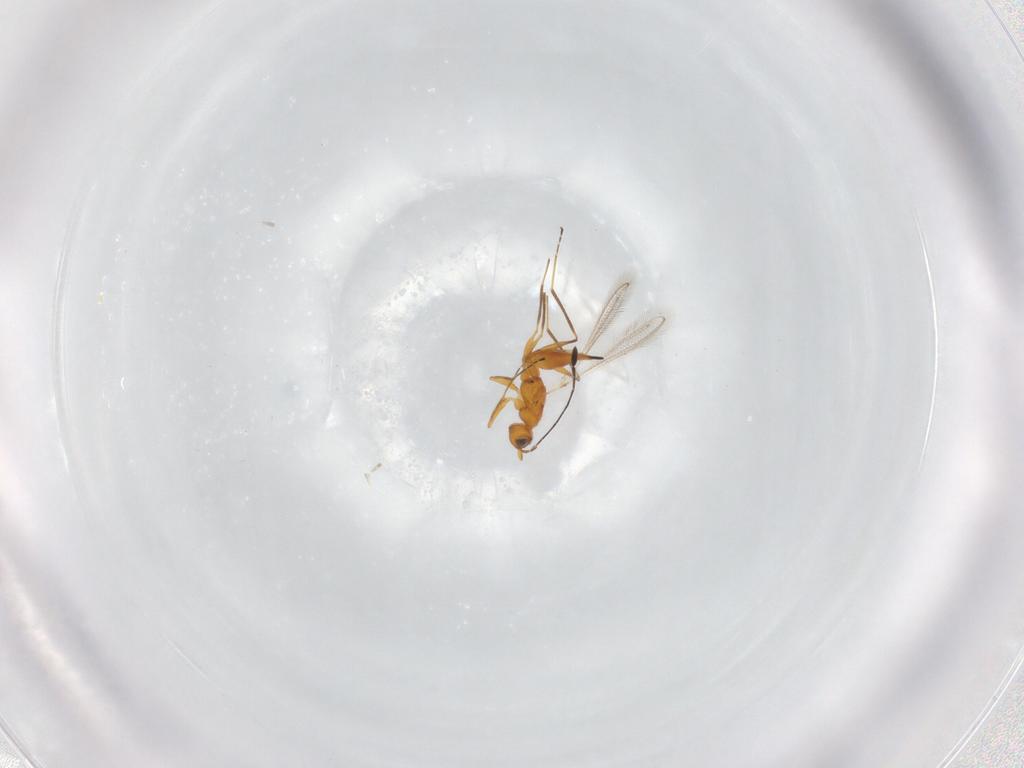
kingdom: Animalia
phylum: Arthropoda
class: Insecta
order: Hymenoptera
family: Mymaridae
